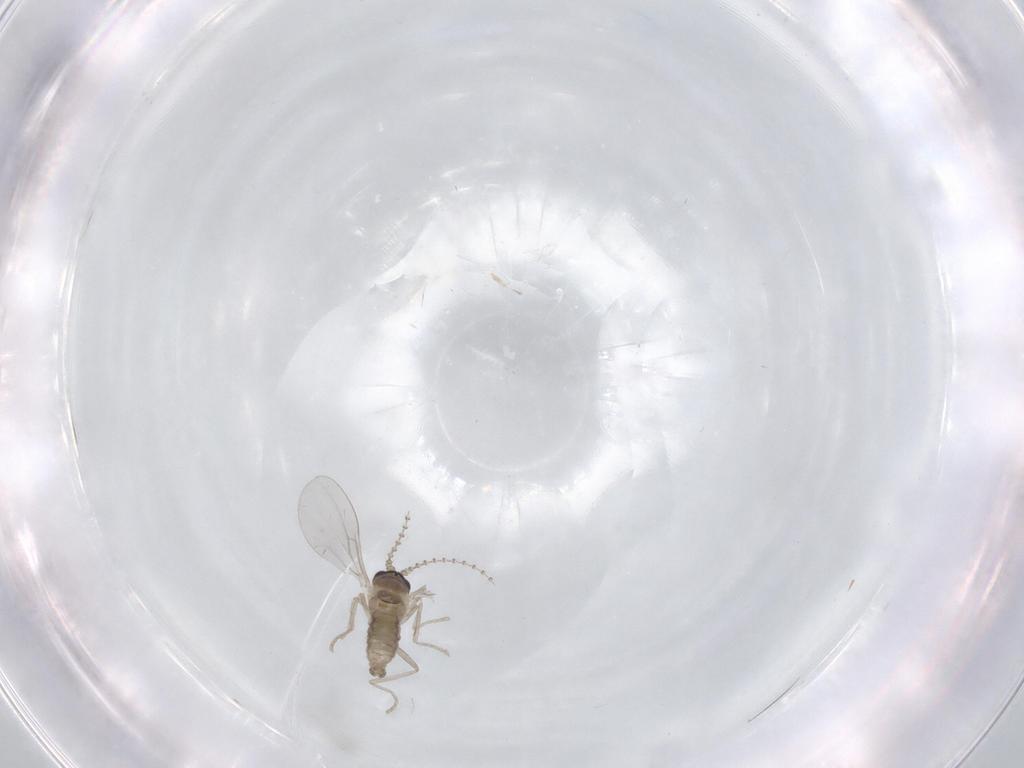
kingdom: Animalia
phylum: Arthropoda
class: Insecta
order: Diptera
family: Cecidomyiidae
